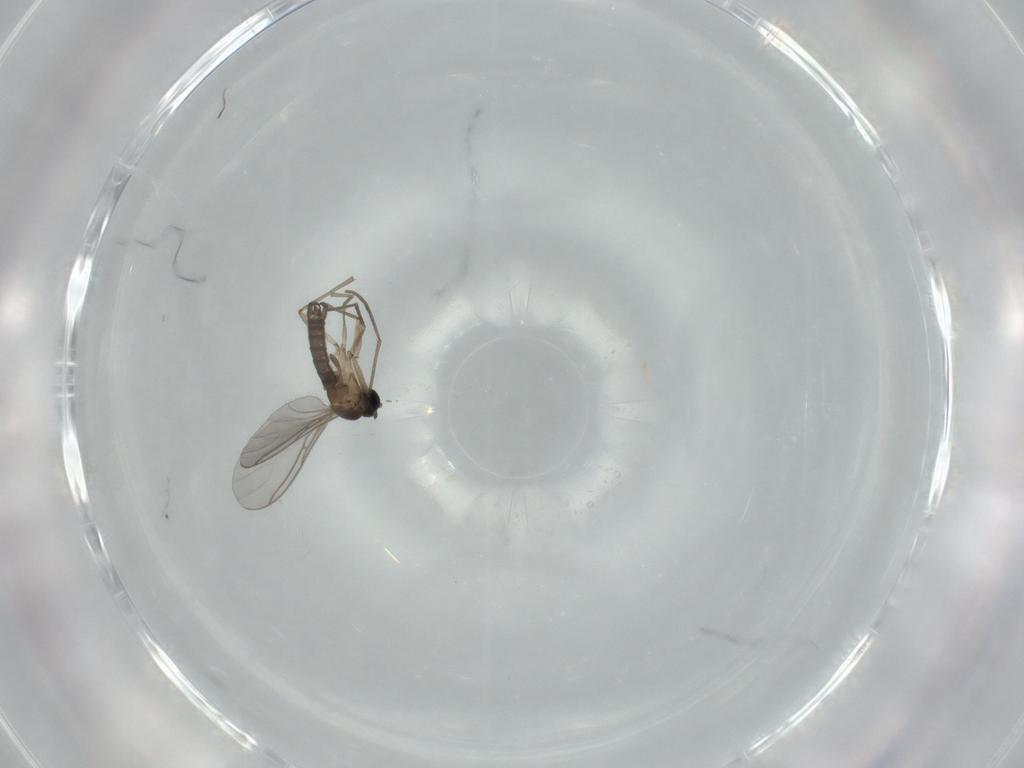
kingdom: Animalia
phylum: Arthropoda
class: Insecta
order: Diptera
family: Sciaridae
